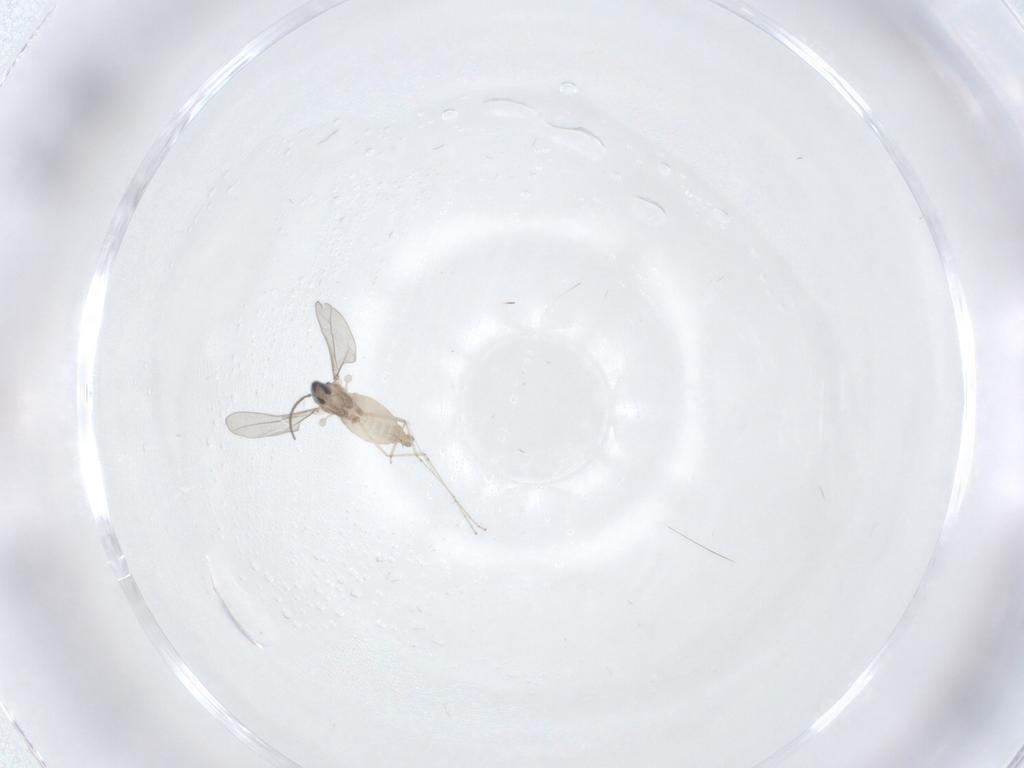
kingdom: Animalia
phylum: Arthropoda
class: Insecta
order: Diptera
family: Cecidomyiidae
